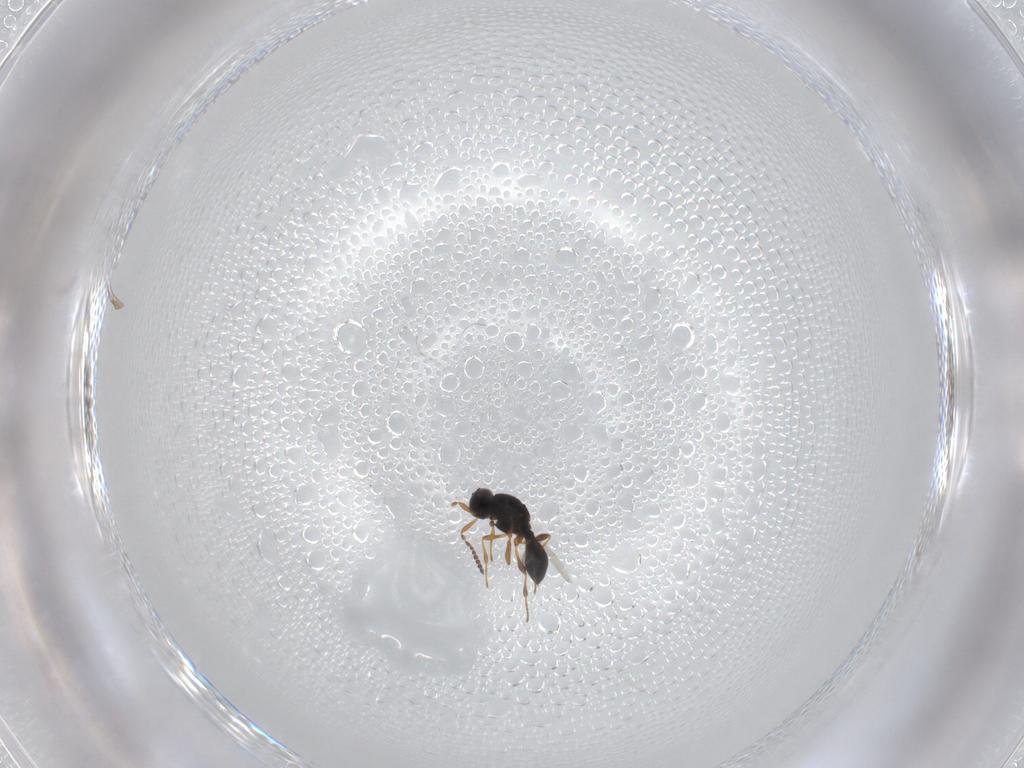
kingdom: Animalia
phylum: Arthropoda
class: Insecta
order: Hymenoptera
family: Platygastridae
